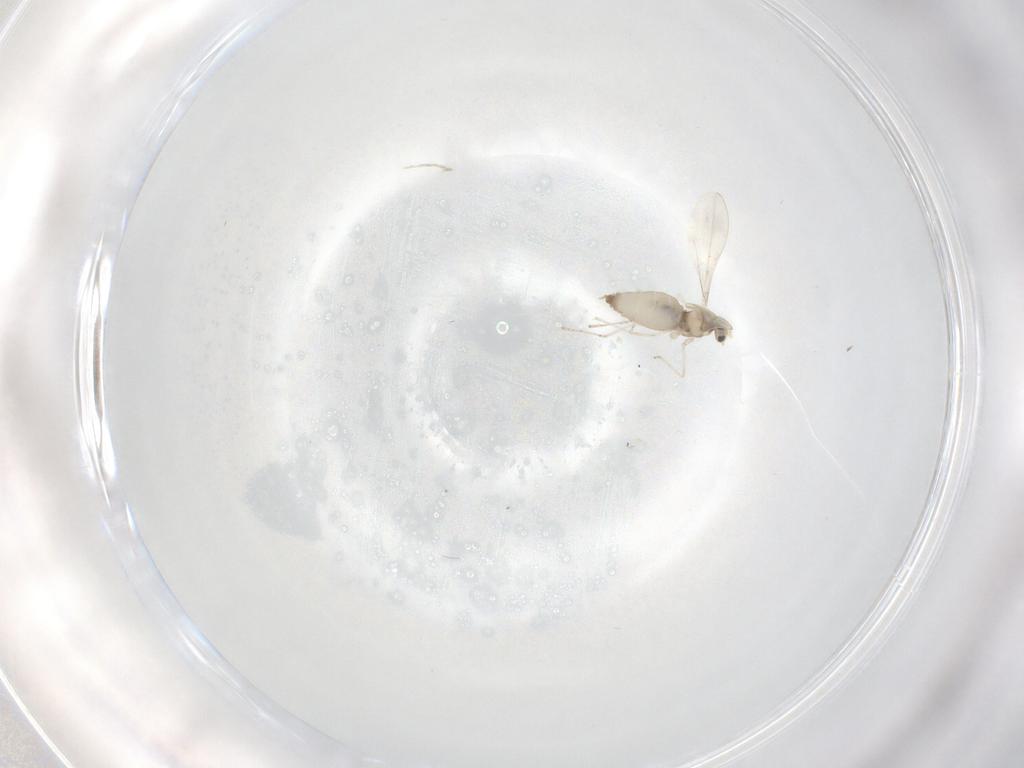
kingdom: Animalia
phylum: Arthropoda
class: Insecta
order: Diptera
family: Cecidomyiidae
